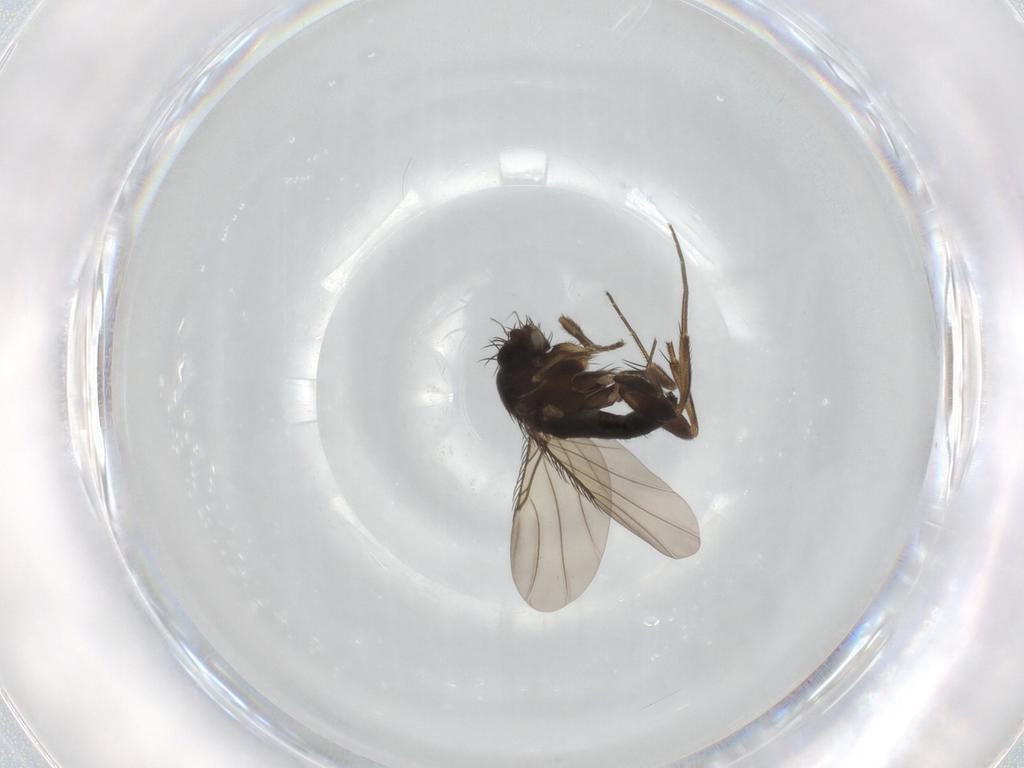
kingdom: Animalia
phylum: Arthropoda
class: Insecta
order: Diptera
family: Phoridae
